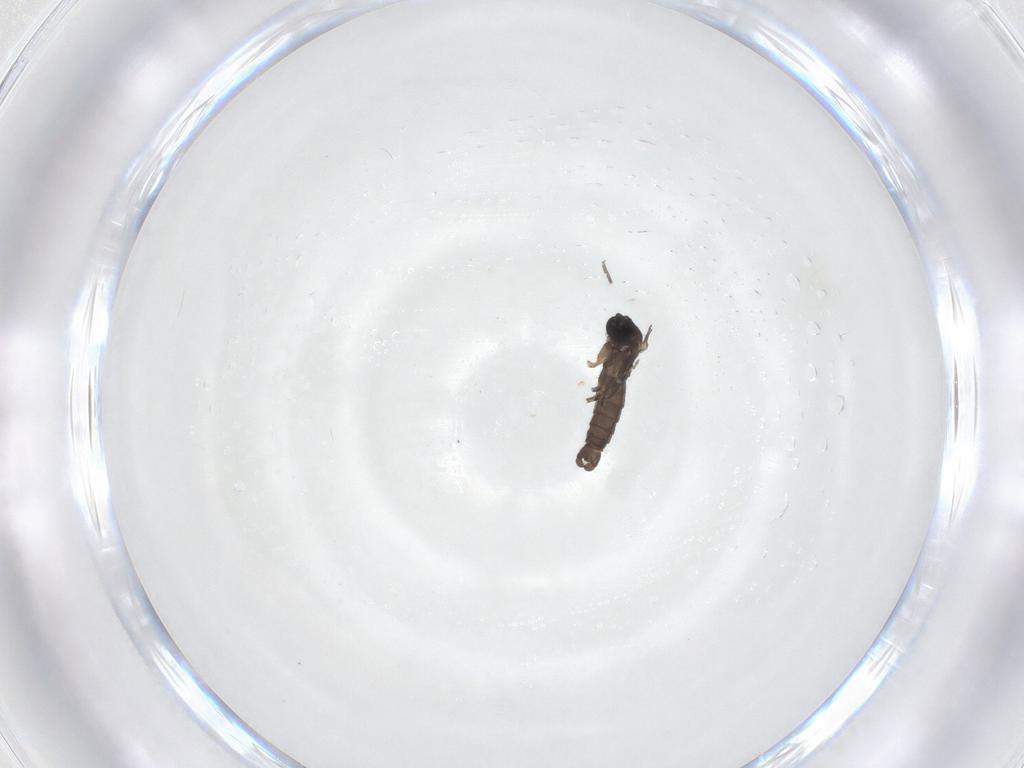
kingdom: Animalia
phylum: Arthropoda
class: Insecta
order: Diptera
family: Sciaridae
